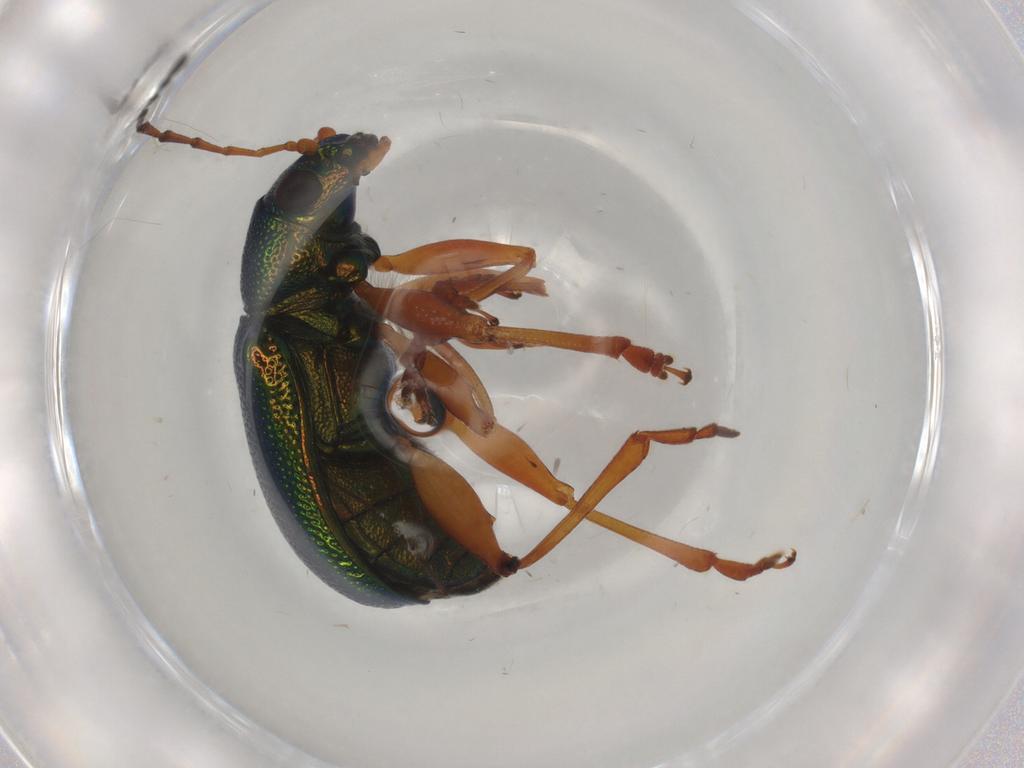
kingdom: Animalia
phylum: Arthropoda
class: Insecta
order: Coleoptera
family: Chrysomelidae
